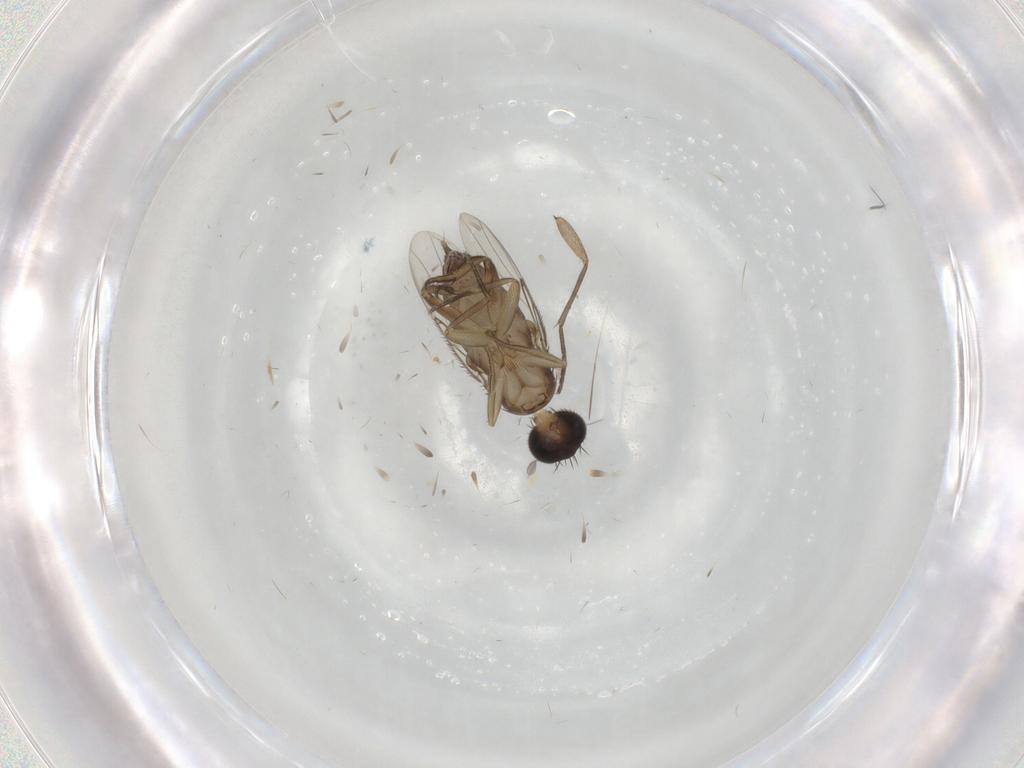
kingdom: Animalia
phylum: Arthropoda
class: Insecta
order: Diptera
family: Phoridae
